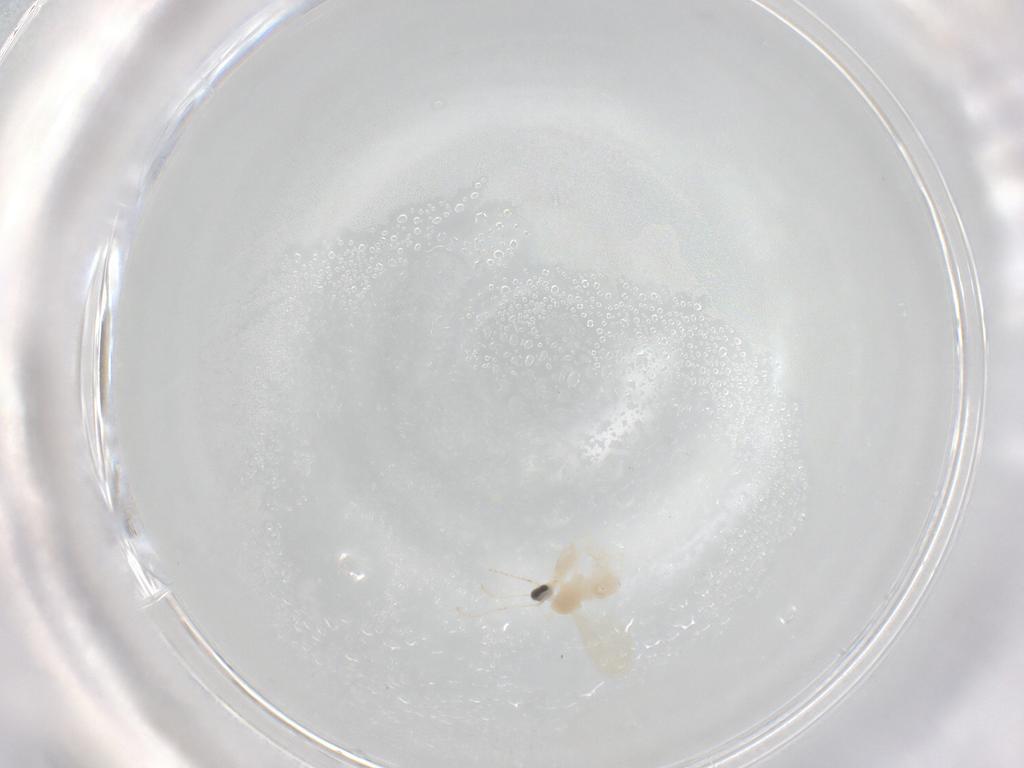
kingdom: Animalia
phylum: Arthropoda
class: Insecta
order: Diptera
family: Cecidomyiidae
